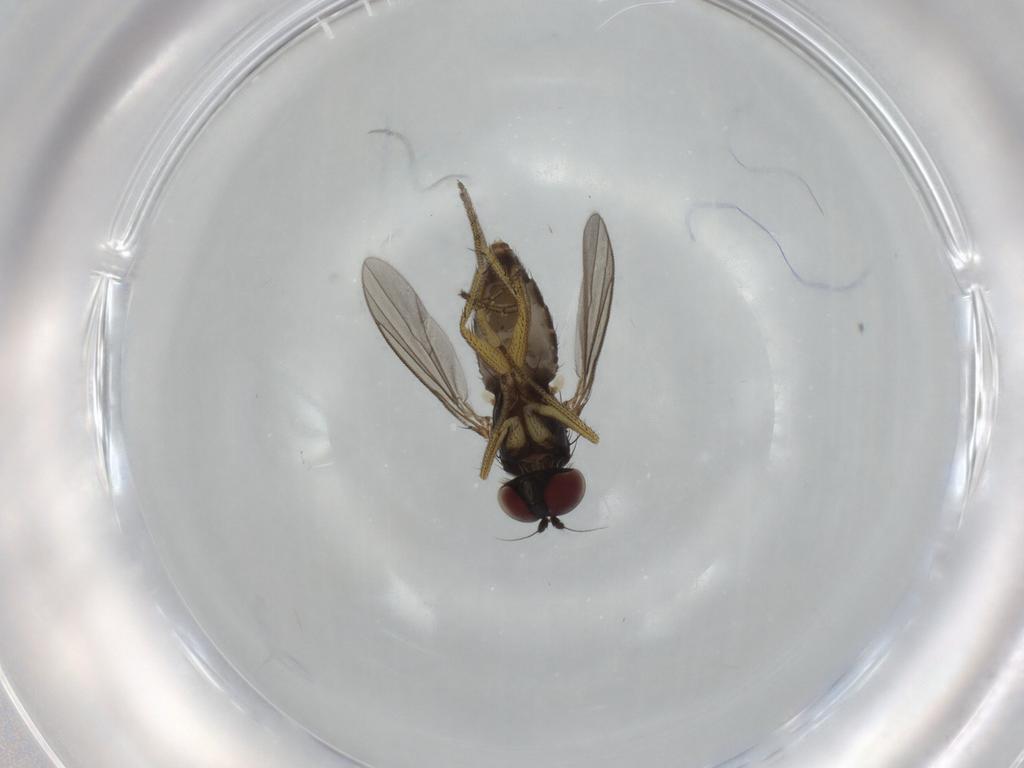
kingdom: Animalia
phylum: Arthropoda
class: Insecta
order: Diptera
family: Dolichopodidae
